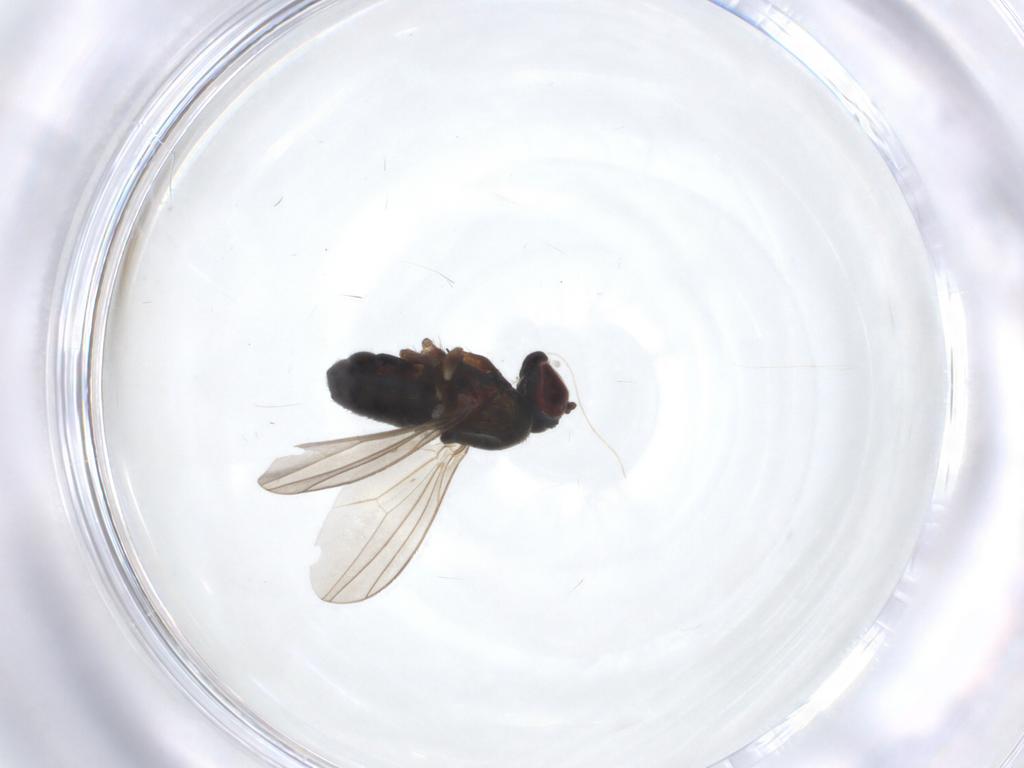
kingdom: Animalia
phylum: Arthropoda
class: Insecta
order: Diptera
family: Dolichopodidae
